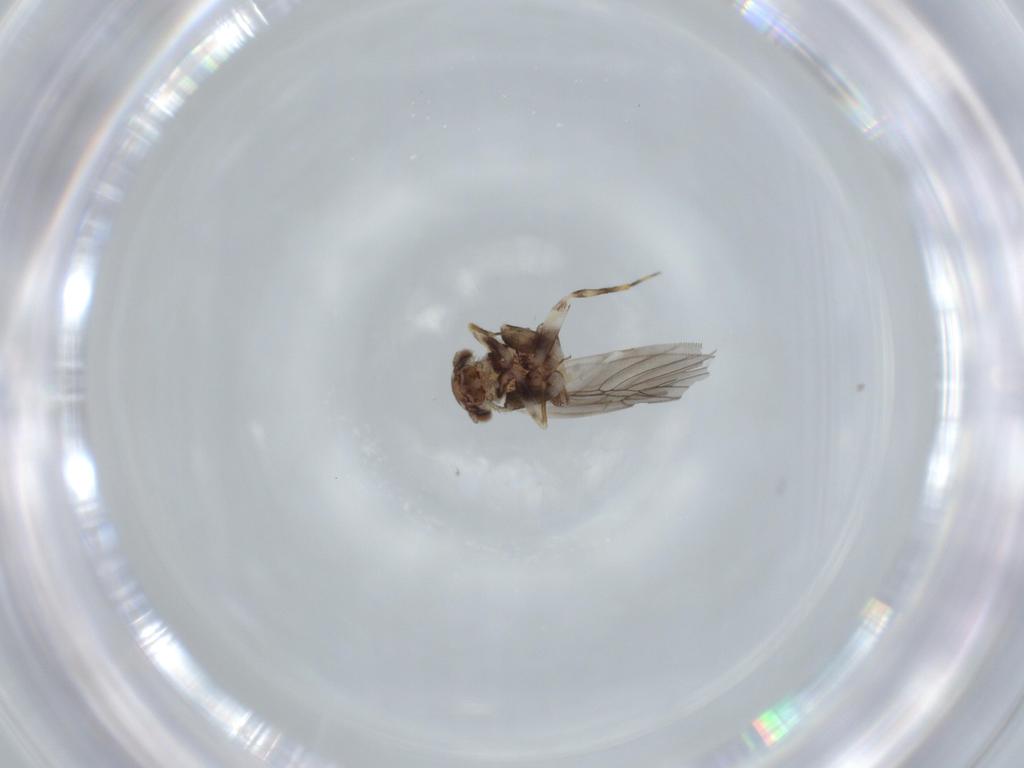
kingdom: Animalia
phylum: Arthropoda
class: Insecta
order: Psocodea
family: Lepidopsocidae
